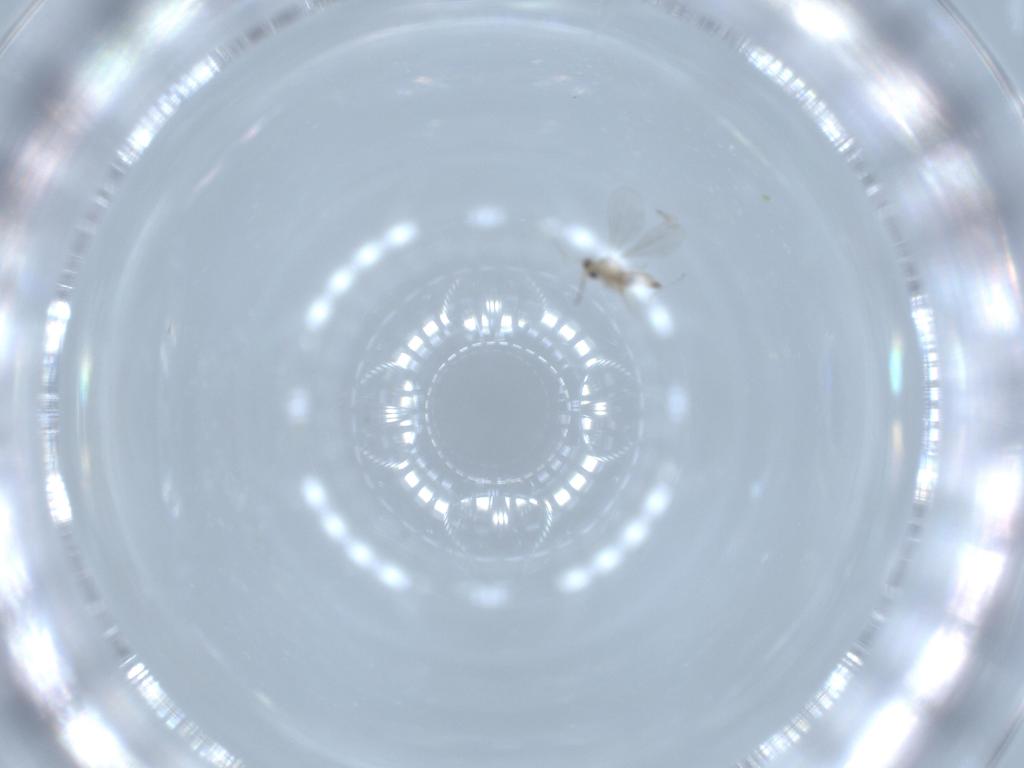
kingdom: Animalia
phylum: Arthropoda
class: Insecta
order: Diptera
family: Cecidomyiidae
